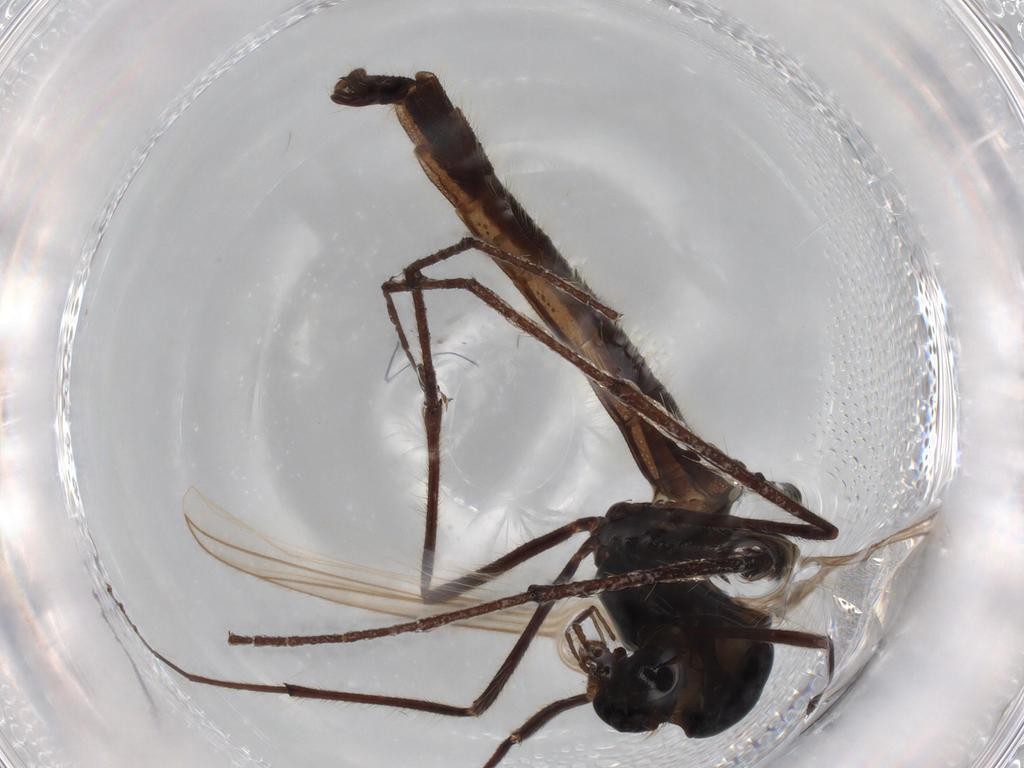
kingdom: Animalia
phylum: Arthropoda
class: Insecta
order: Diptera
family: Chironomidae
